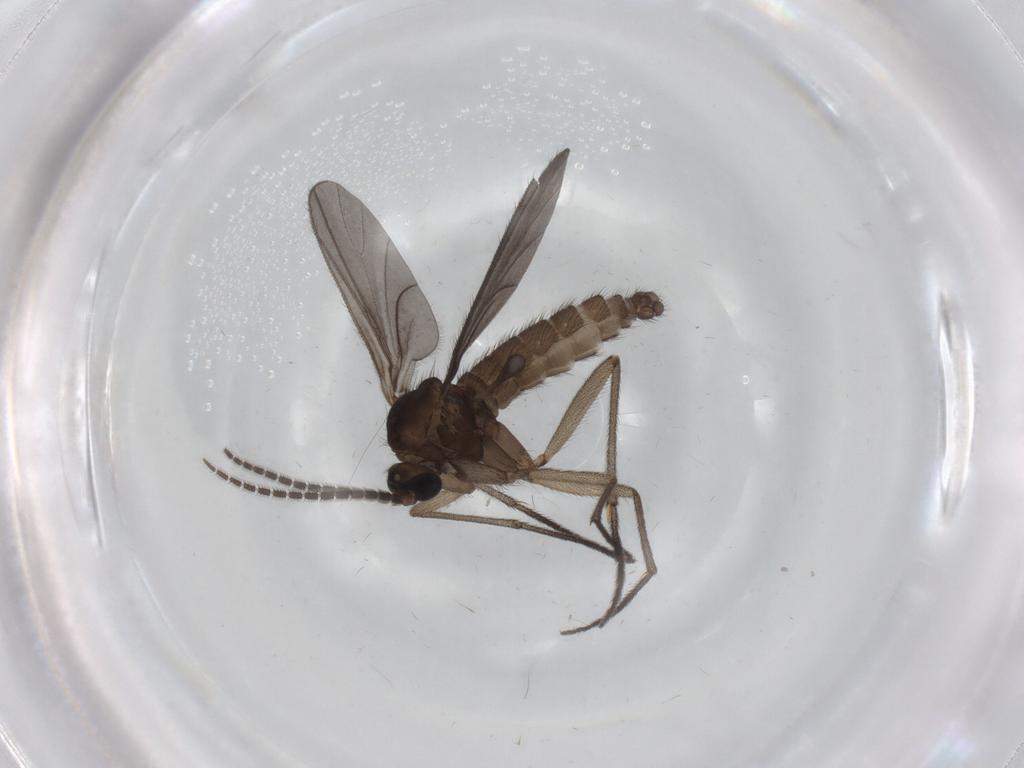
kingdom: Animalia
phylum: Arthropoda
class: Insecta
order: Diptera
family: Sciaridae
